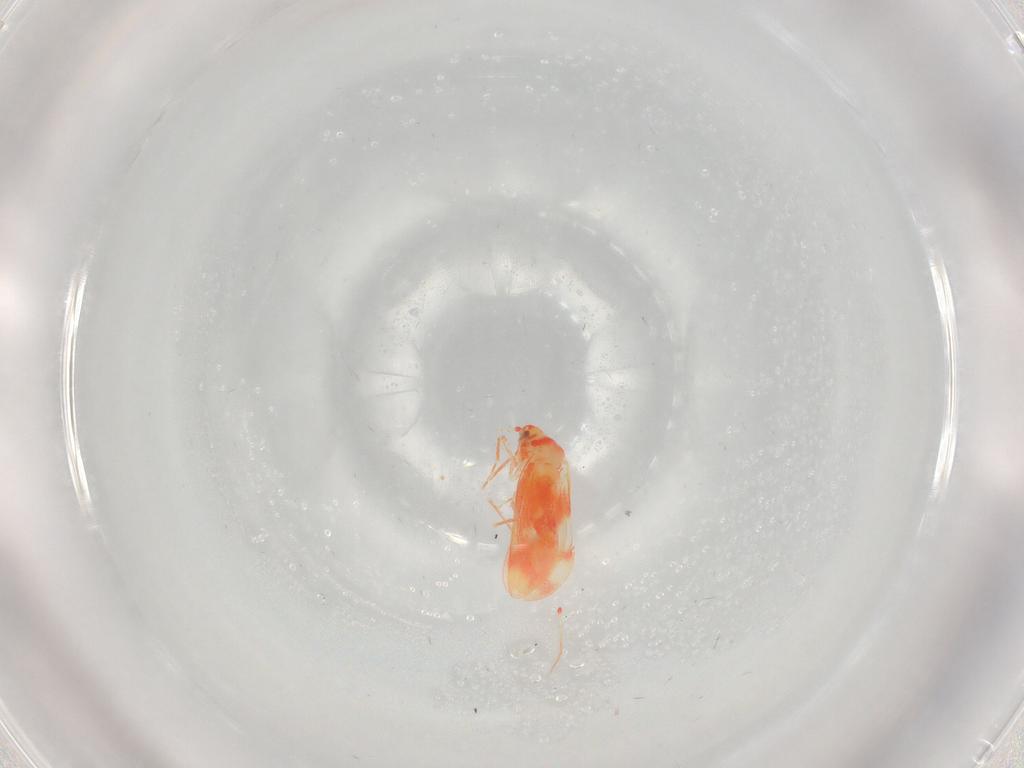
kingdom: Animalia
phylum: Arthropoda
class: Insecta
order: Hemiptera
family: Aleyrodidae
